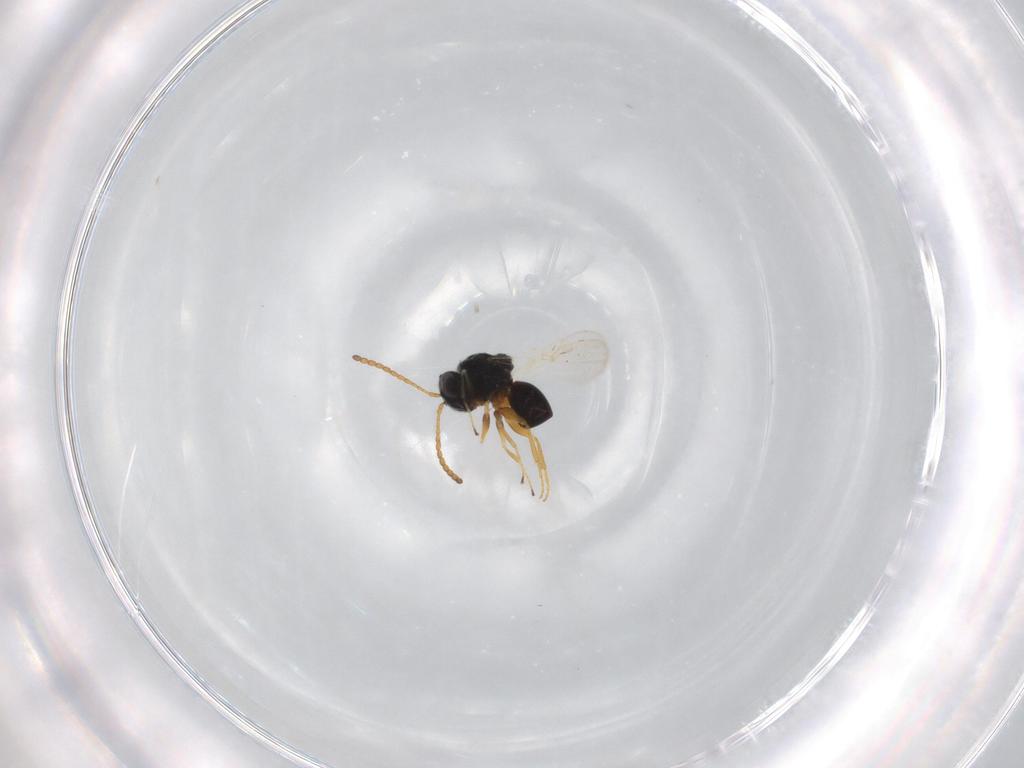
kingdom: Animalia
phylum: Arthropoda
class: Insecta
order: Hymenoptera
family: Figitidae
